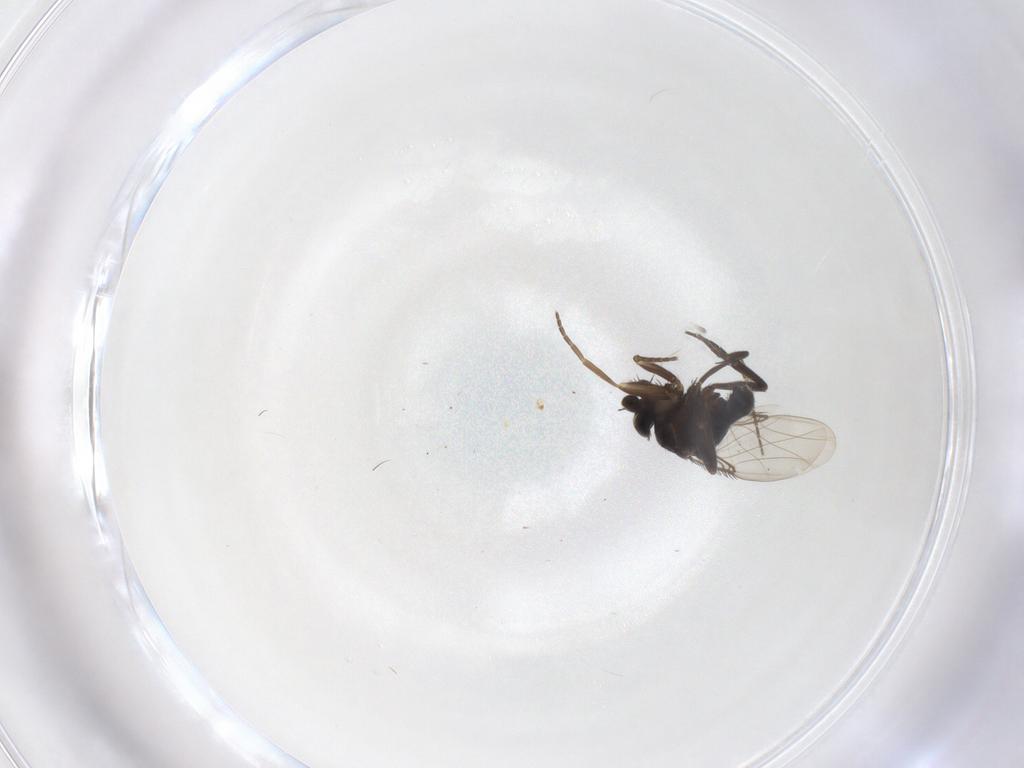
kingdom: Animalia
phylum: Arthropoda
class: Insecta
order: Diptera
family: Phoridae
